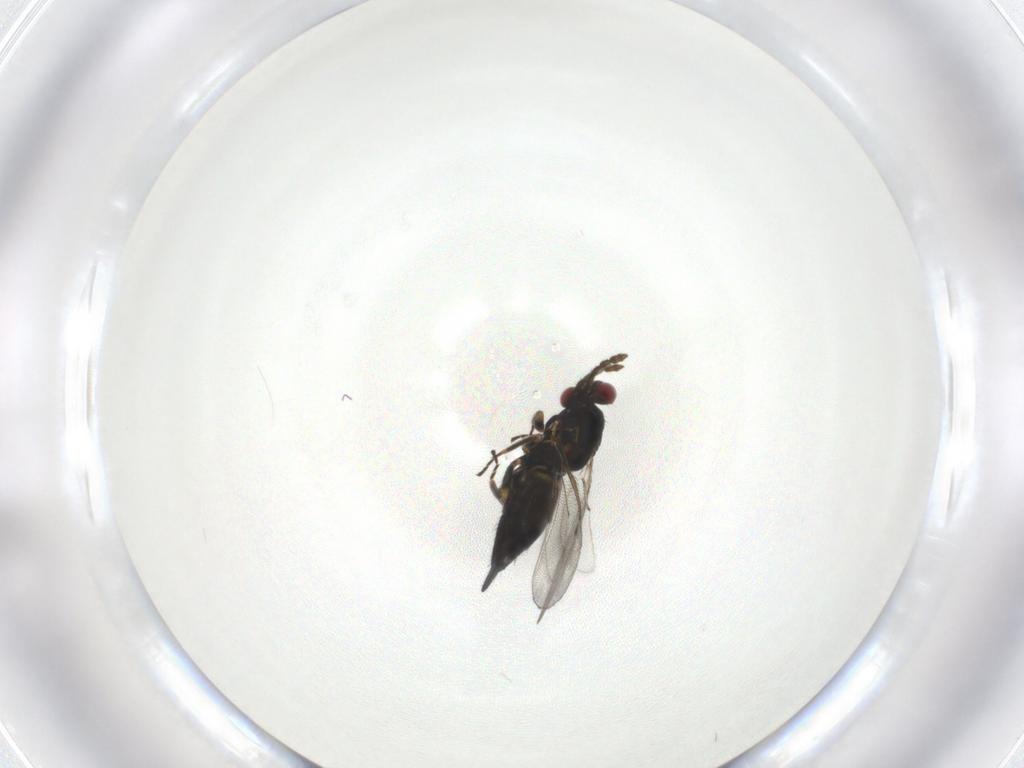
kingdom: Animalia
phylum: Arthropoda
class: Insecta
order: Hymenoptera
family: Eulophidae
